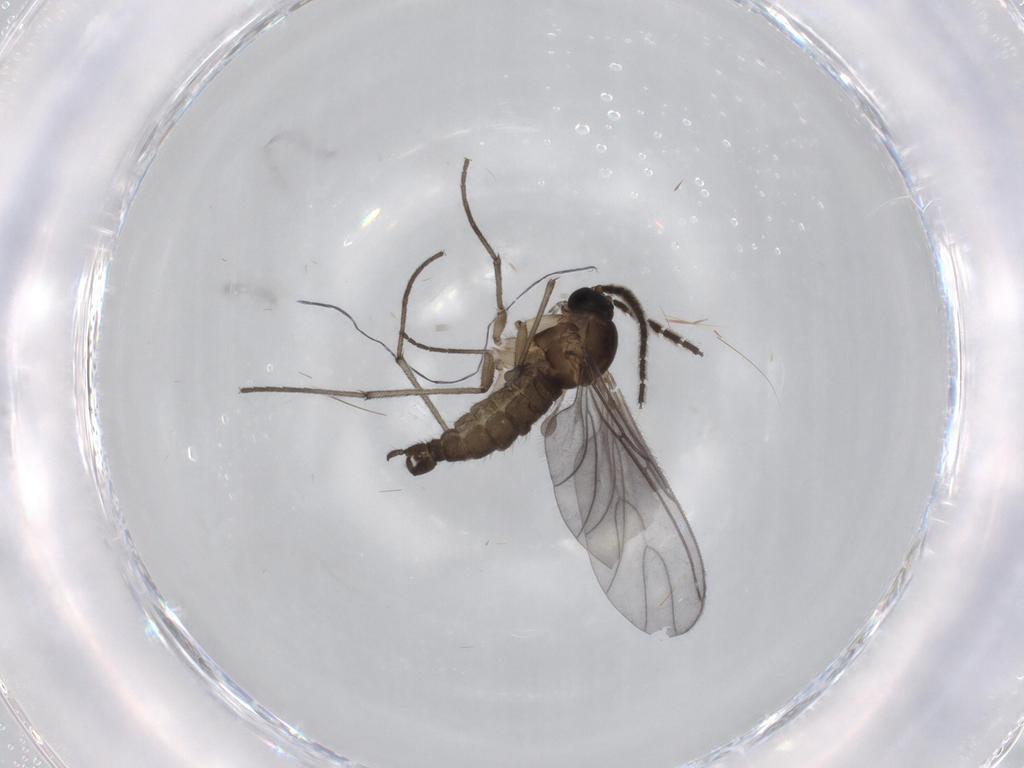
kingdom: Animalia
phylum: Arthropoda
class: Insecta
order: Diptera
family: Sciaridae
